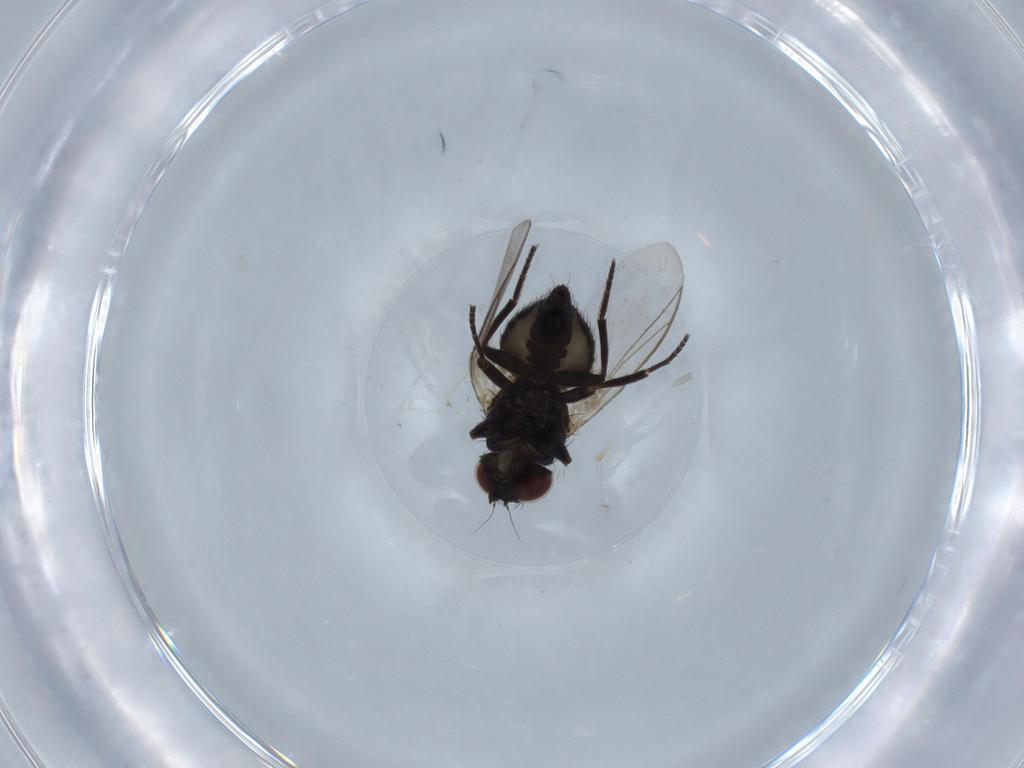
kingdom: Animalia
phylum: Arthropoda
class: Insecta
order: Diptera
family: Agromyzidae
